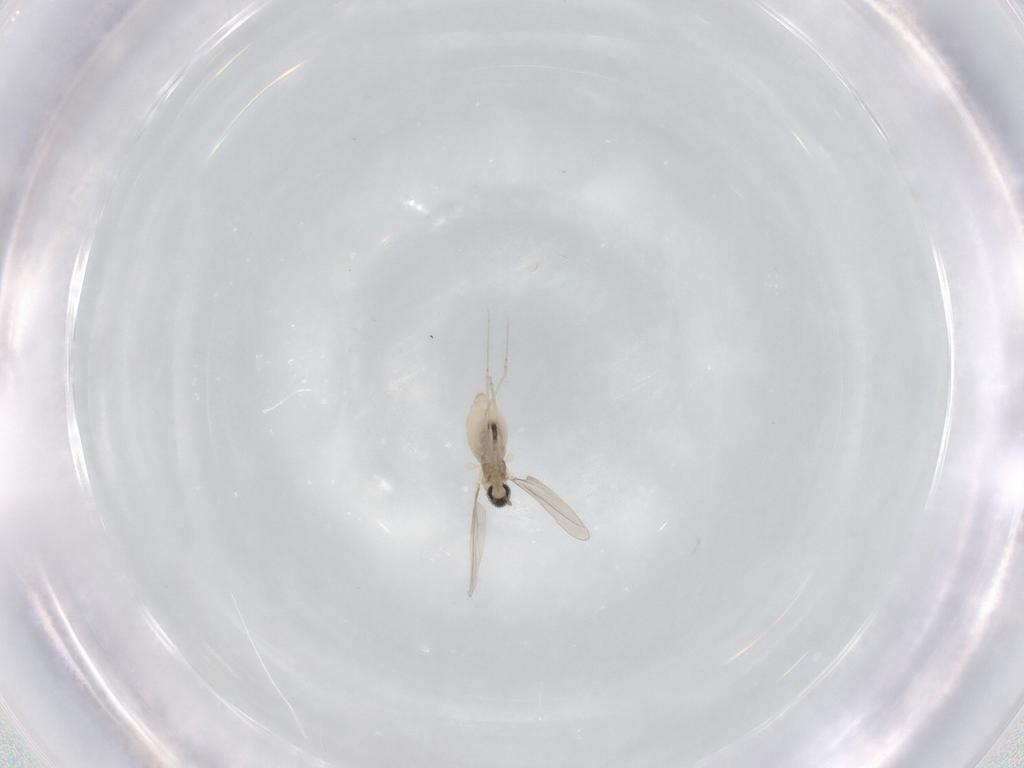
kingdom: Animalia
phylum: Arthropoda
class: Insecta
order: Diptera
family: Cecidomyiidae
